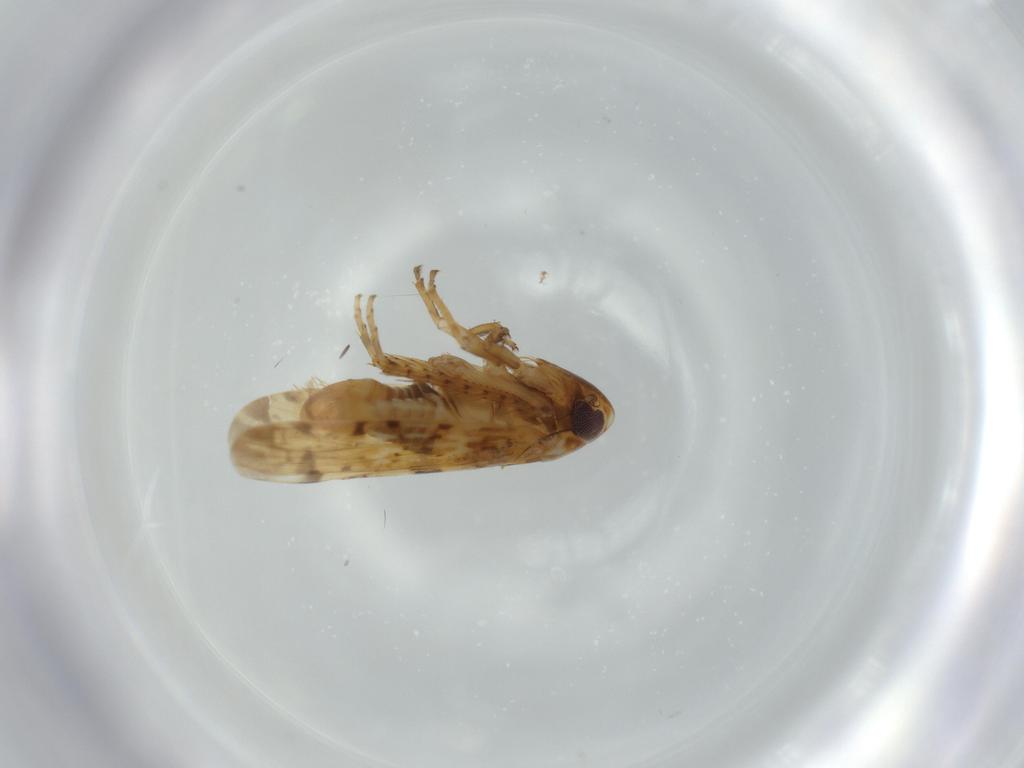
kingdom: Animalia
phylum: Arthropoda
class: Insecta
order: Hemiptera
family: Cicadellidae
